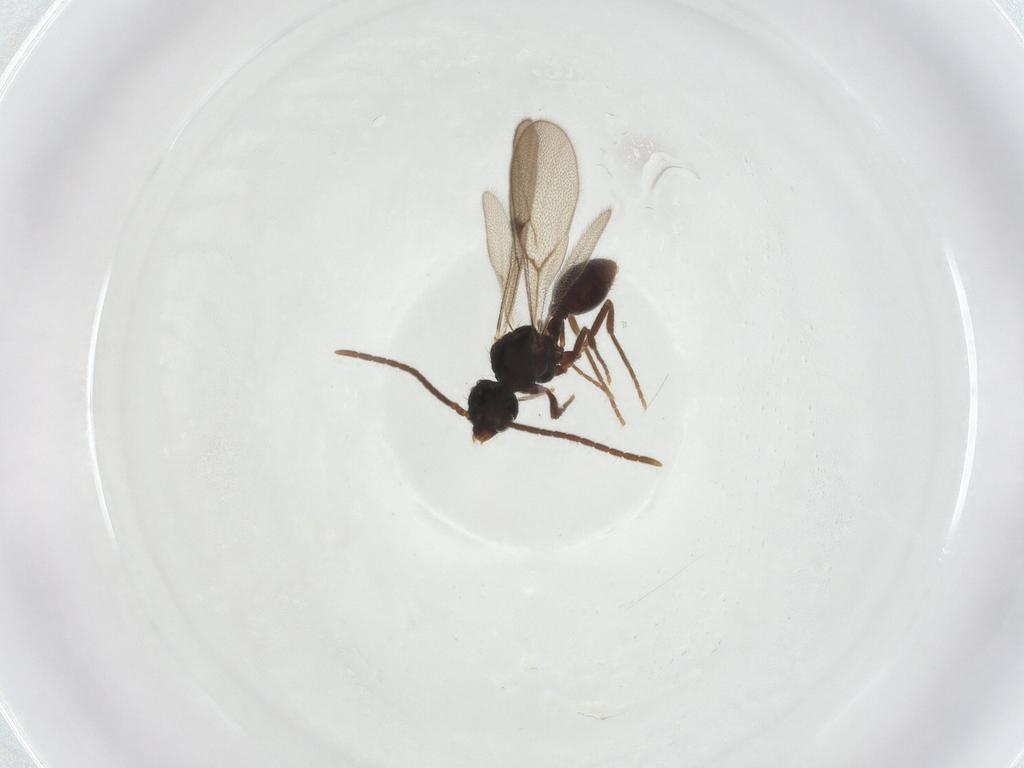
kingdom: Animalia
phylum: Arthropoda
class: Insecta
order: Hymenoptera
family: Formicidae
